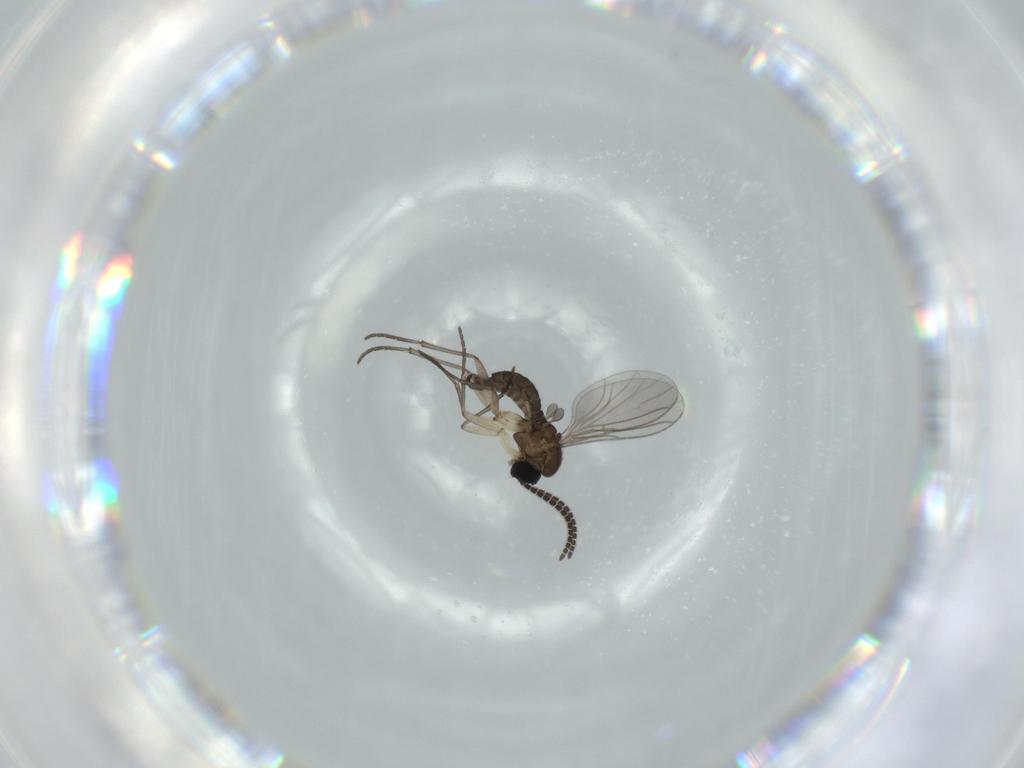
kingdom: Animalia
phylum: Arthropoda
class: Insecta
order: Diptera
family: Sciaridae
